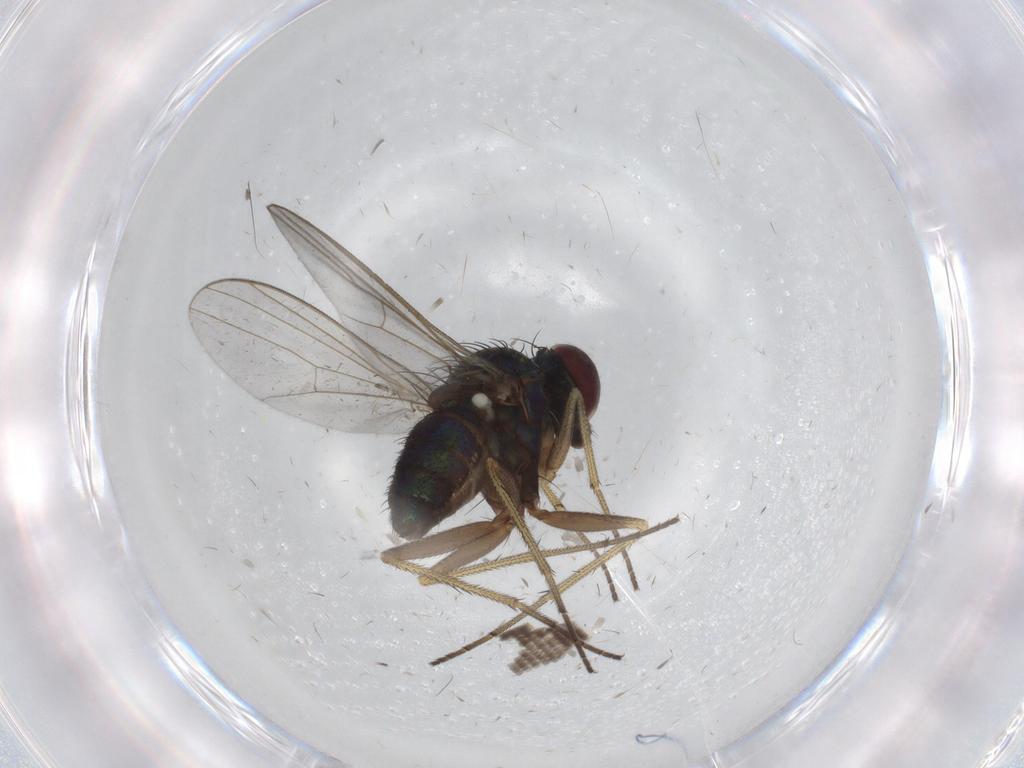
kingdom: Animalia
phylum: Arthropoda
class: Insecta
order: Diptera
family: Dolichopodidae
